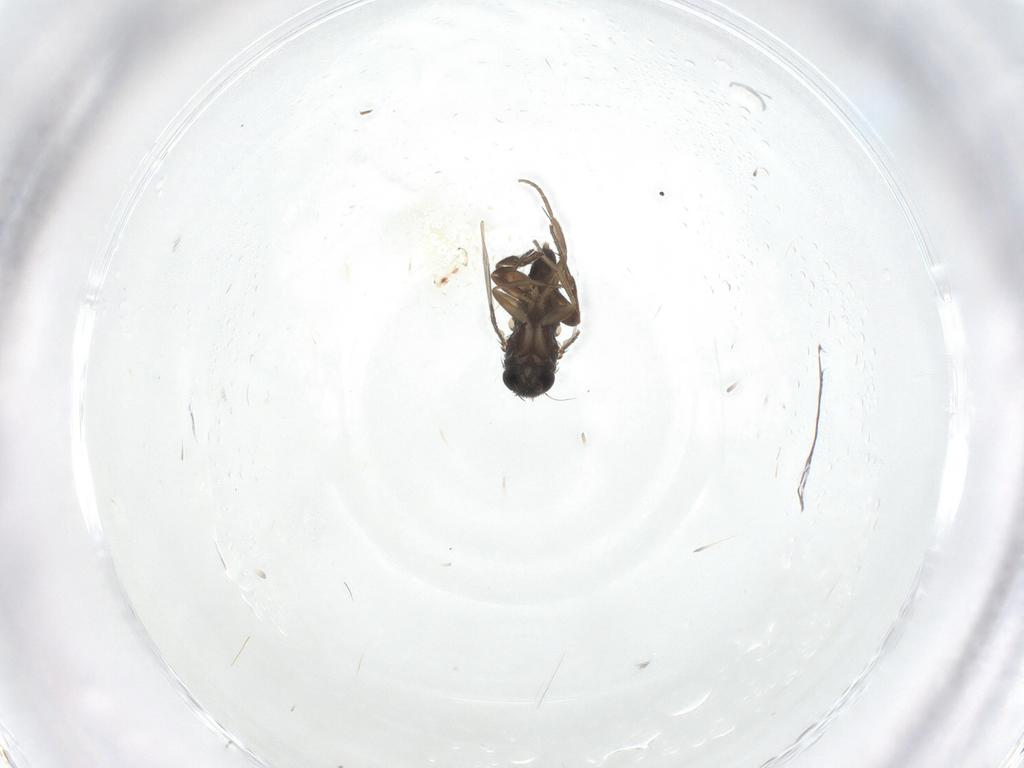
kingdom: Animalia
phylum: Arthropoda
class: Insecta
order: Diptera
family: Phoridae
